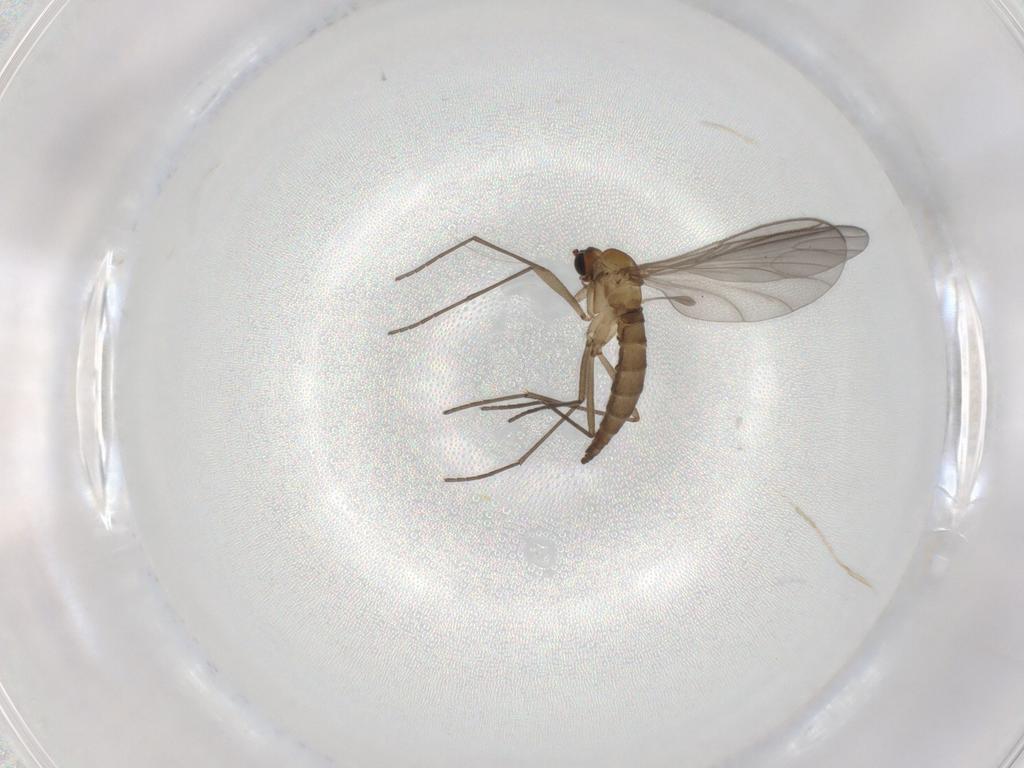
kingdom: Animalia
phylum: Arthropoda
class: Insecta
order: Diptera
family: Sciaridae
